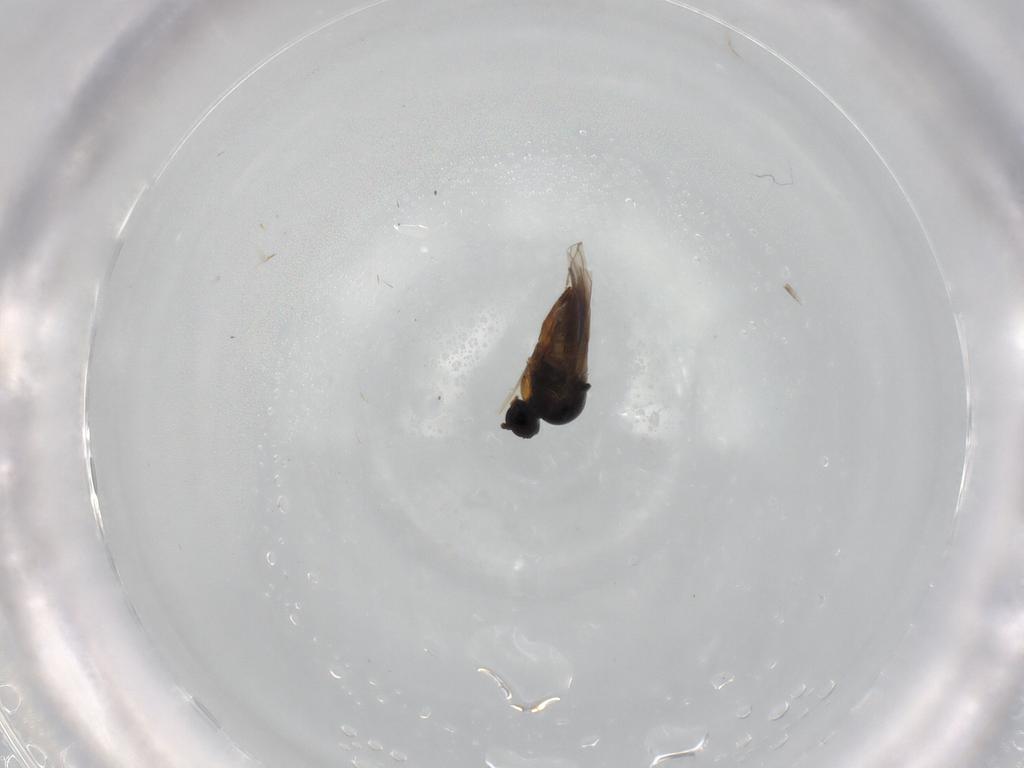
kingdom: Animalia
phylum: Arthropoda
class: Insecta
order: Diptera
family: Hybotidae
